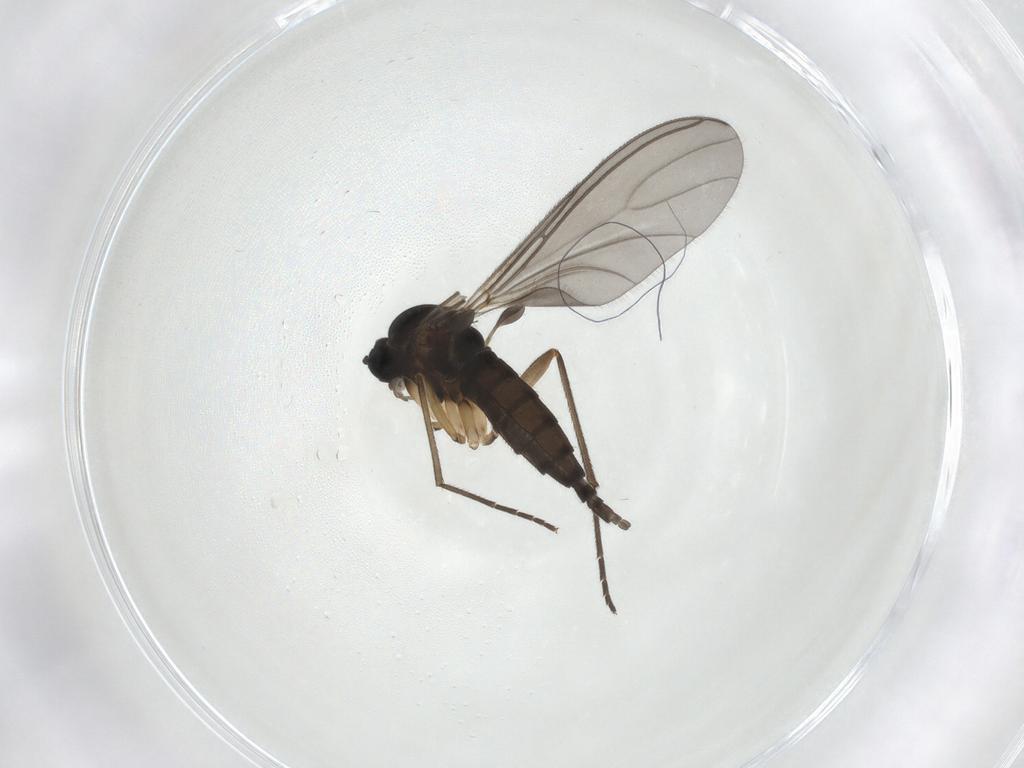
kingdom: Animalia
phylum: Arthropoda
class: Insecta
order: Diptera
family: Sciaridae
